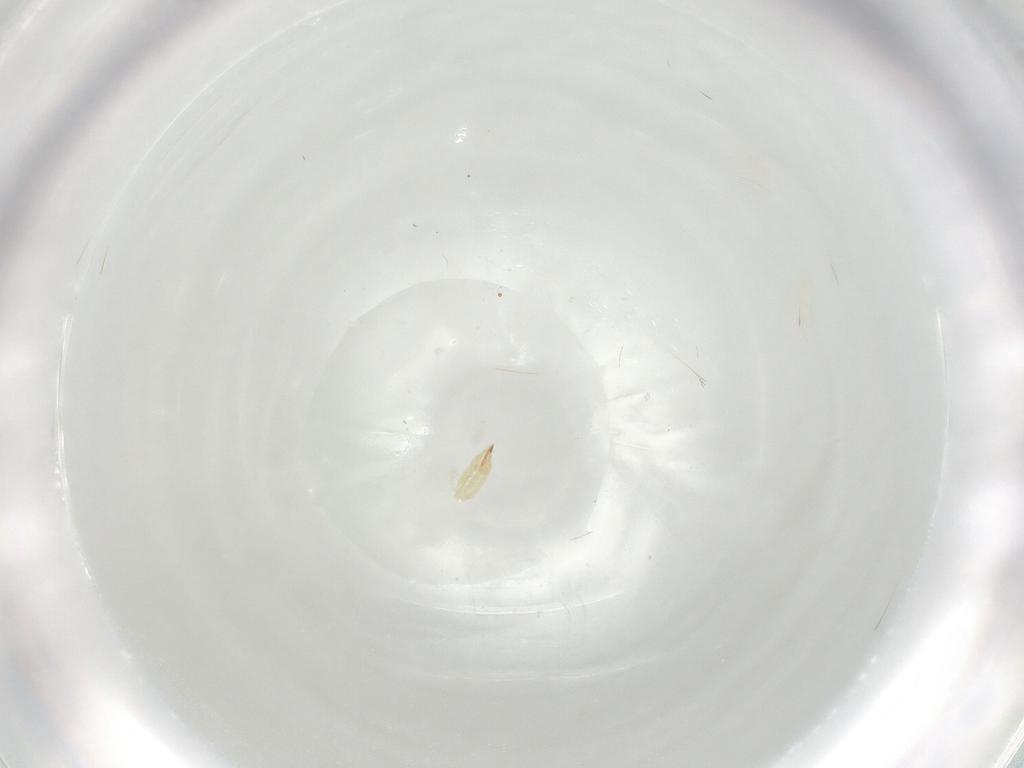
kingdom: Animalia
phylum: Arthropoda
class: Insecta
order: Thysanoptera
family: Thripidae
